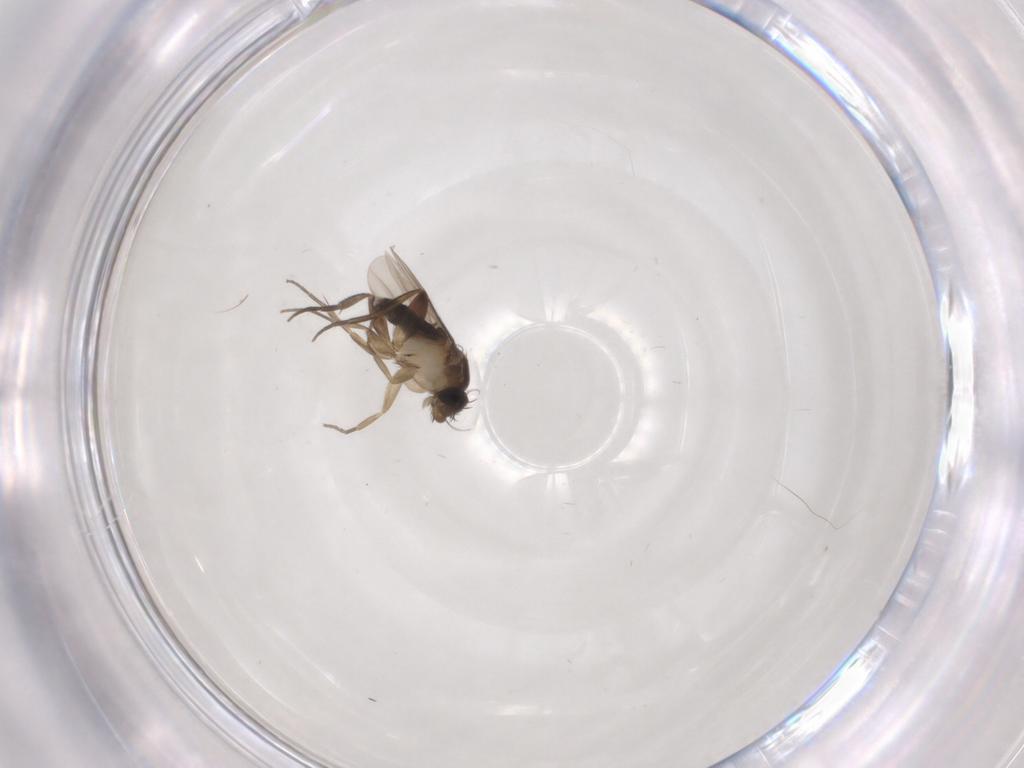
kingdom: Animalia
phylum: Arthropoda
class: Insecta
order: Diptera
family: Phoridae
